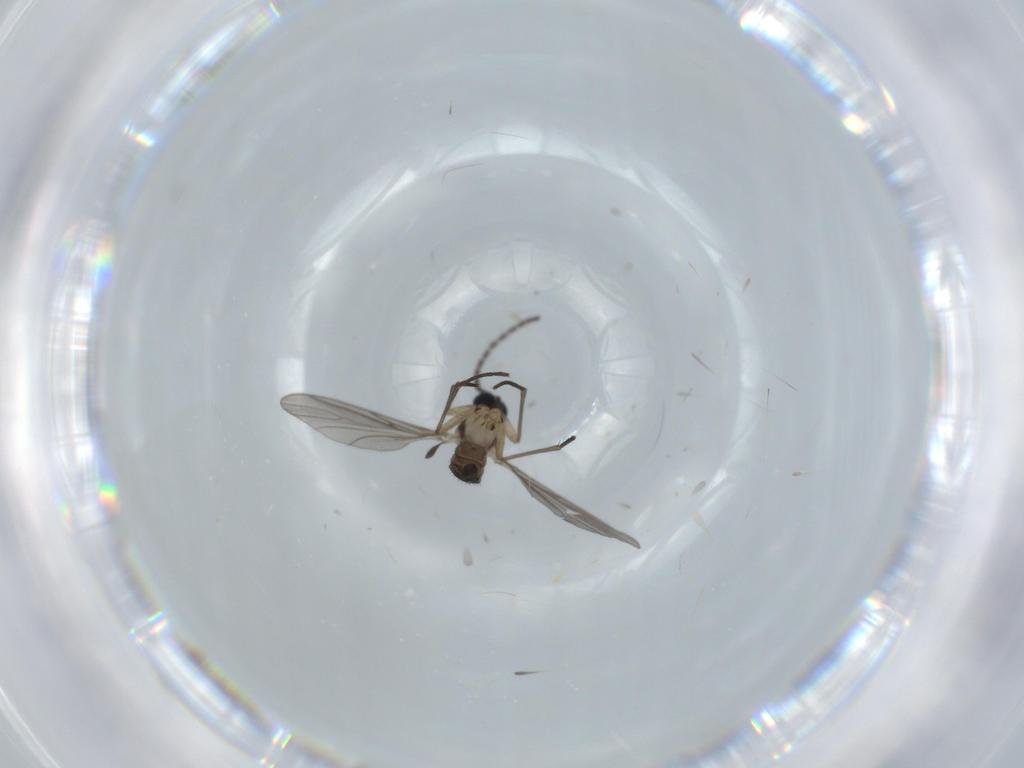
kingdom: Animalia
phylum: Arthropoda
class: Insecta
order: Diptera
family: Sciaridae
